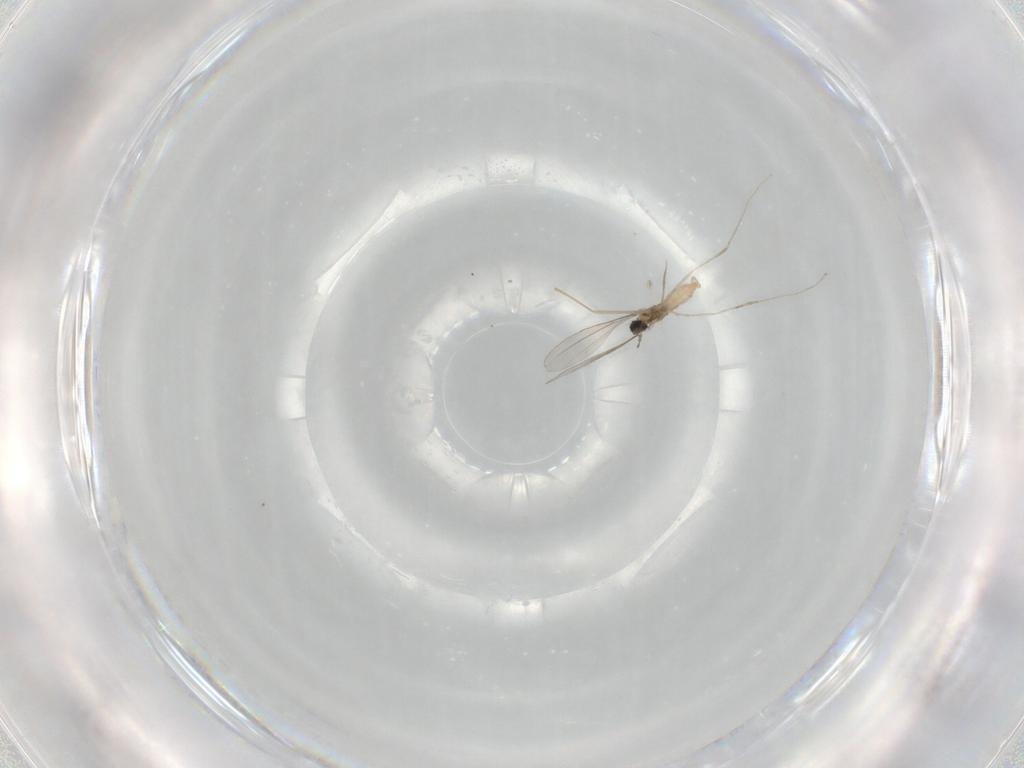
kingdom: Animalia
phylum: Arthropoda
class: Insecta
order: Diptera
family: Cecidomyiidae
